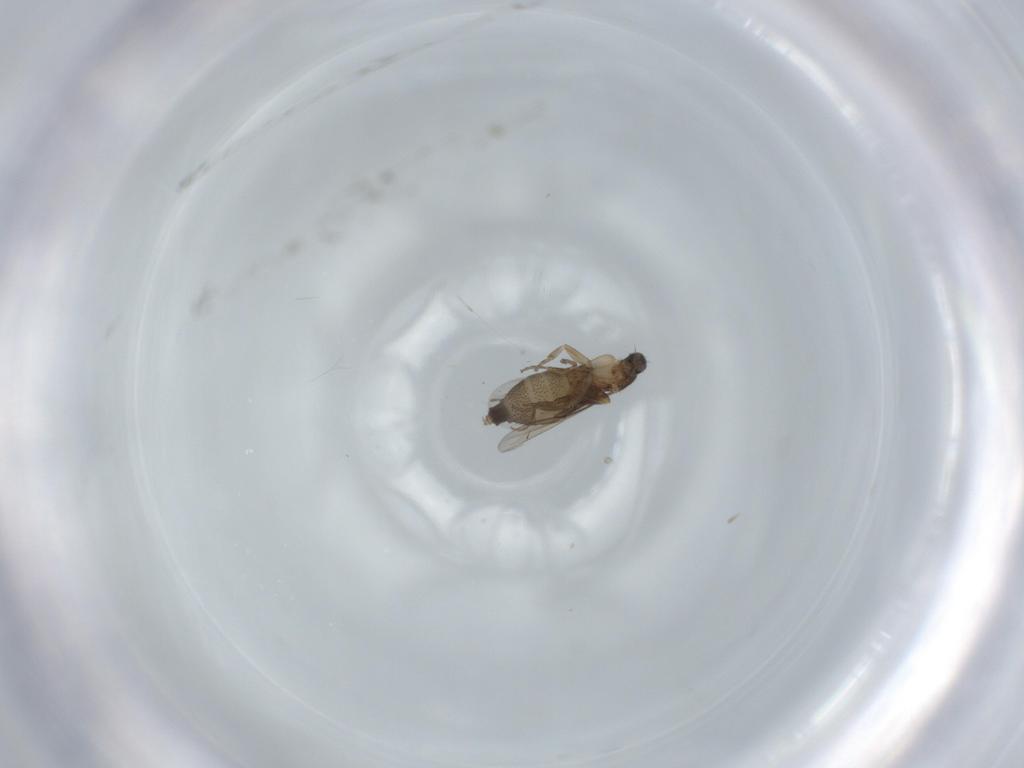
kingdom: Animalia
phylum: Arthropoda
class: Insecta
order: Diptera
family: Phoridae
